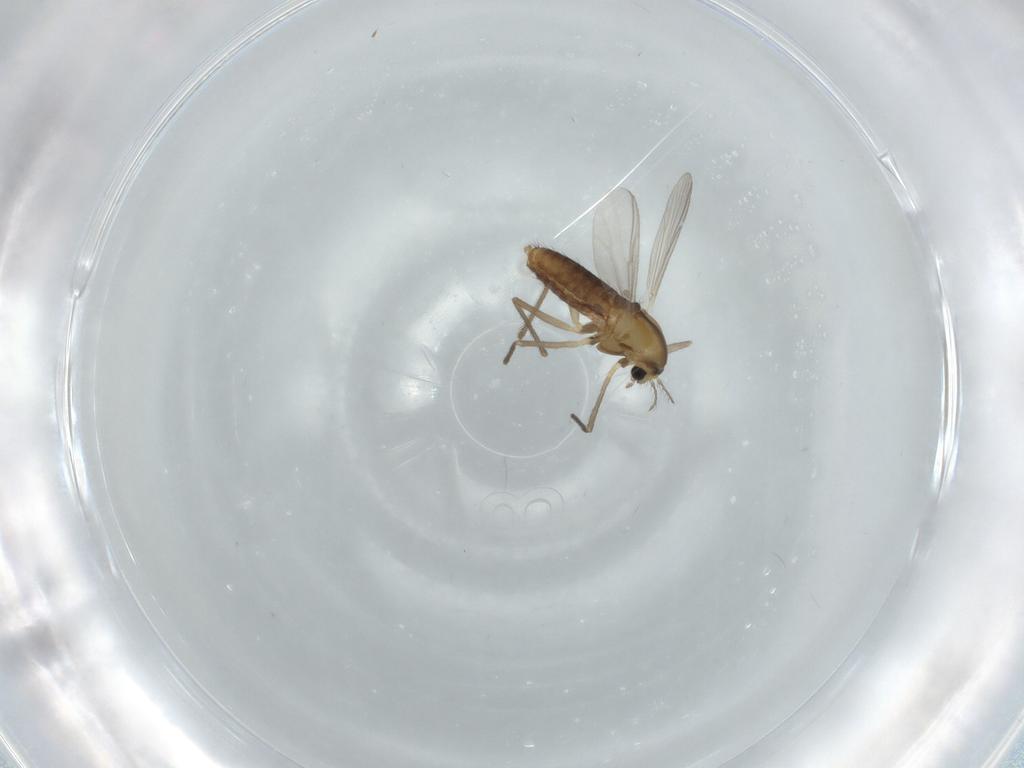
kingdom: Animalia
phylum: Arthropoda
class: Insecta
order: Diptera
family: Chironomidae
